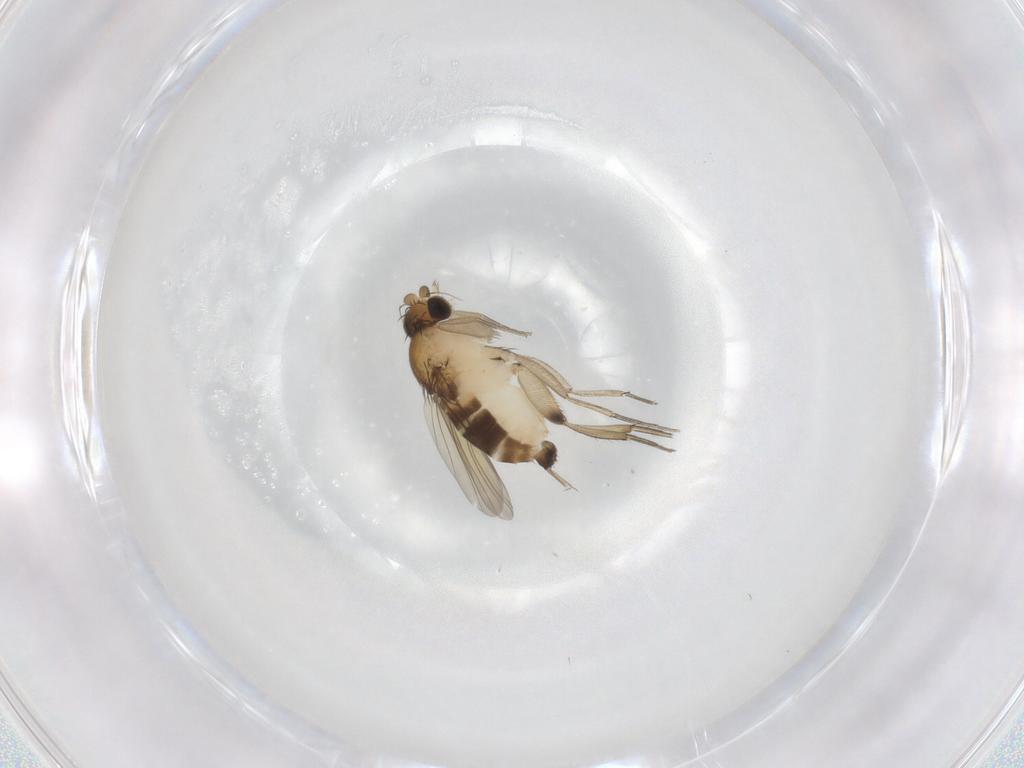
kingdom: Animalia
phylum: Arthropoda
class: Insecta
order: Diptera
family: Phoridae
